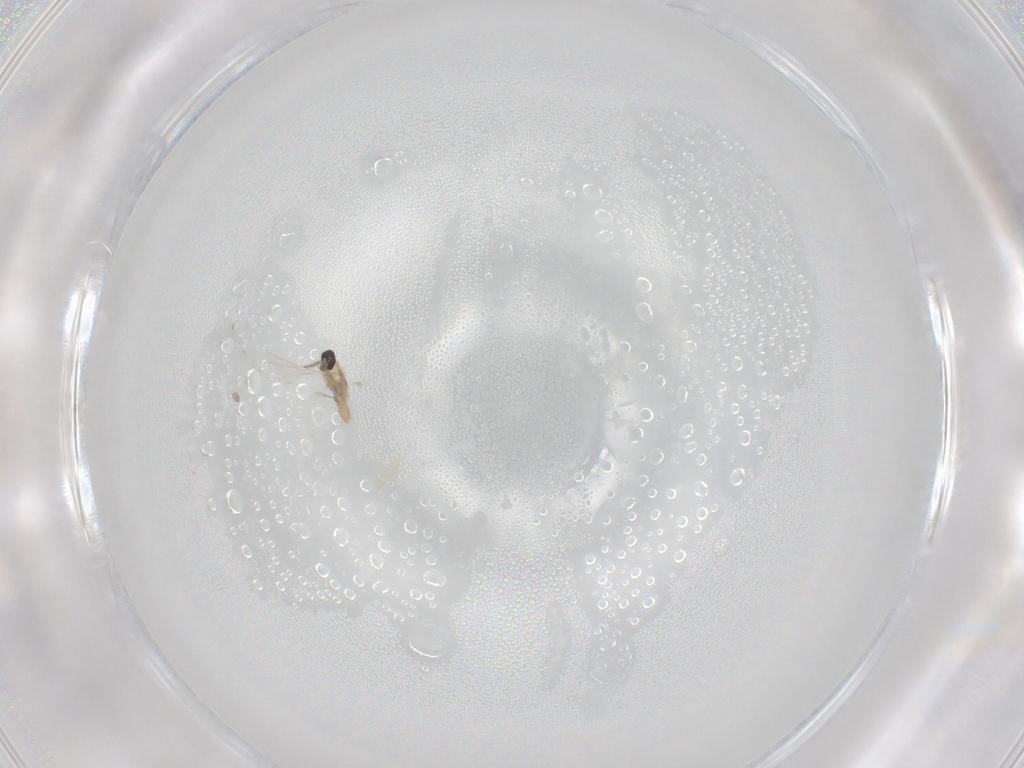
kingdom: Animalia
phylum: Arthropoda
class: Insecta
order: Diptera
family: Cecidomyiidae
